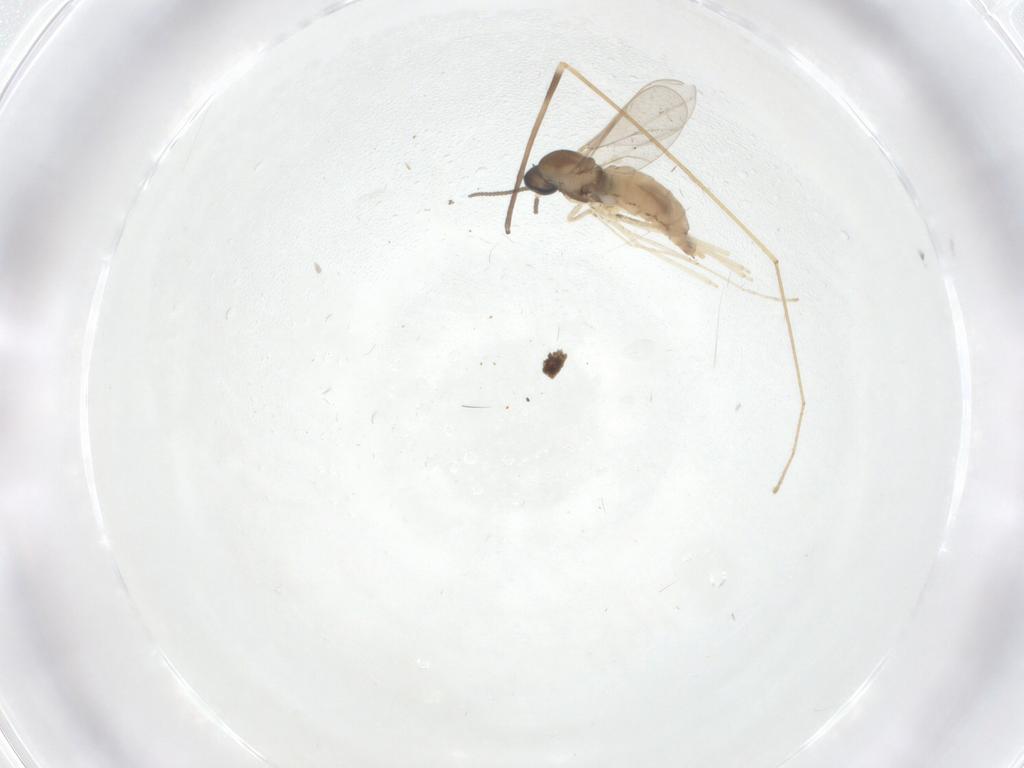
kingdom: Animalia
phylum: Arthropoda
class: Insecta
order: Diptera
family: Limoniidae
